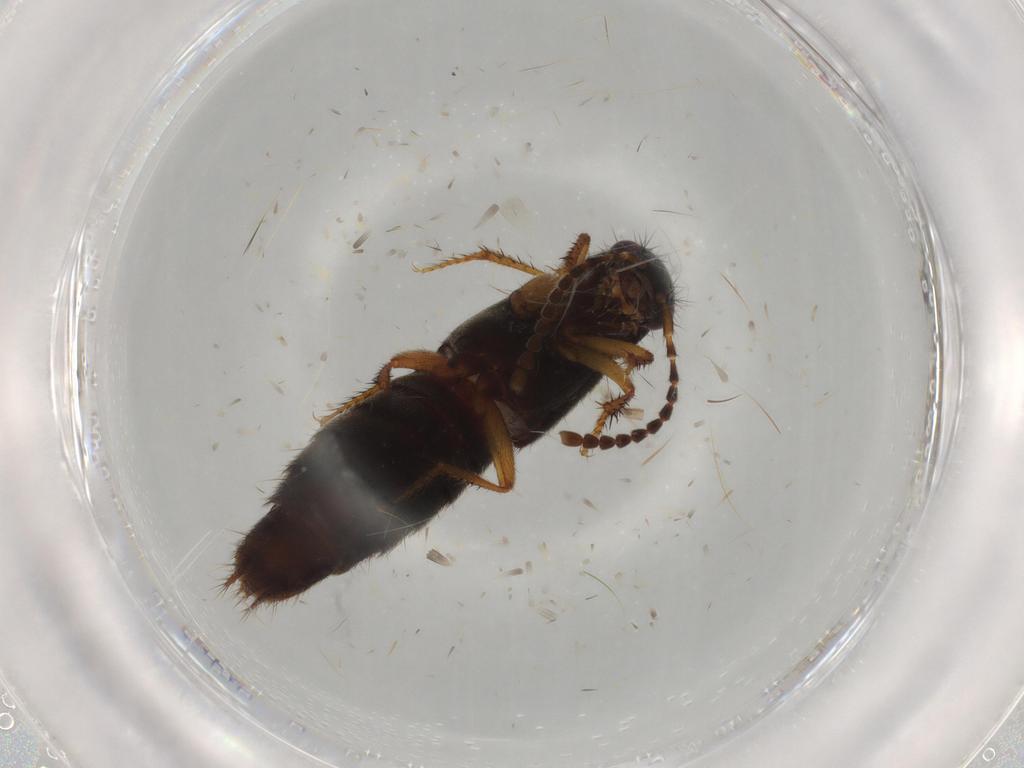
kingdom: Animalia
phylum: Arthropoda
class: Insecta
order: Coleoptera
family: Staphylinidae
